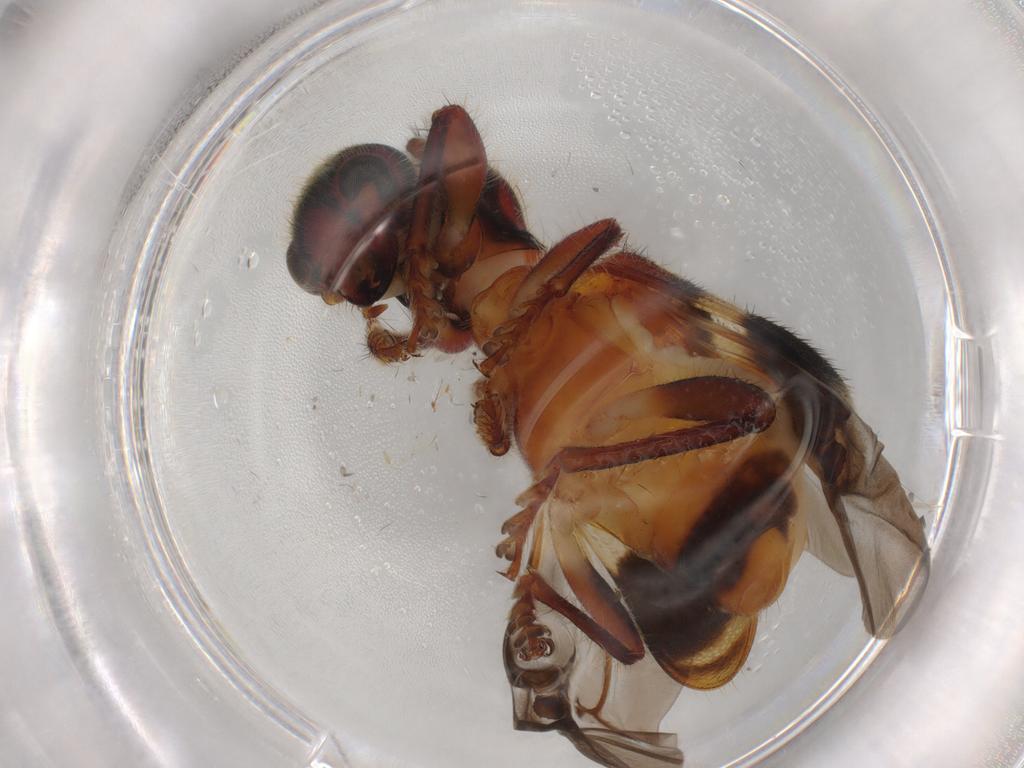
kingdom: Animalia
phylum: Arthropoda
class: Insecta
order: Coleoptera
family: Cleridae
